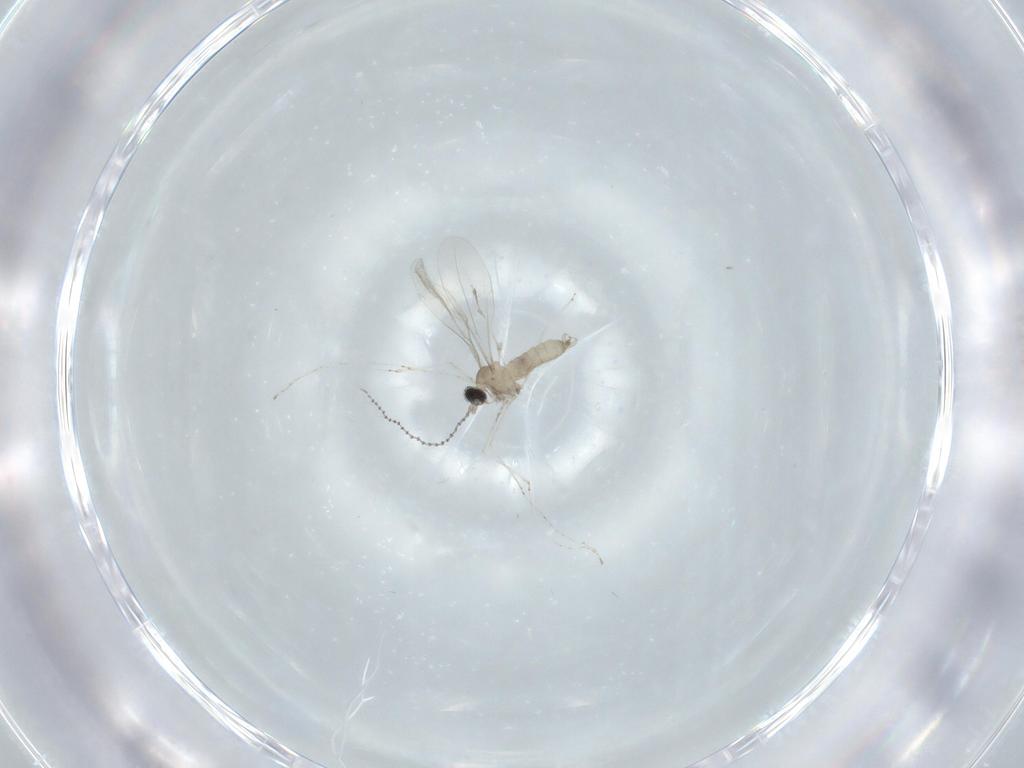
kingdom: Animalia
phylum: Arthropoda
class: Insecta
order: Diptera
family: Cecidomyiidae
